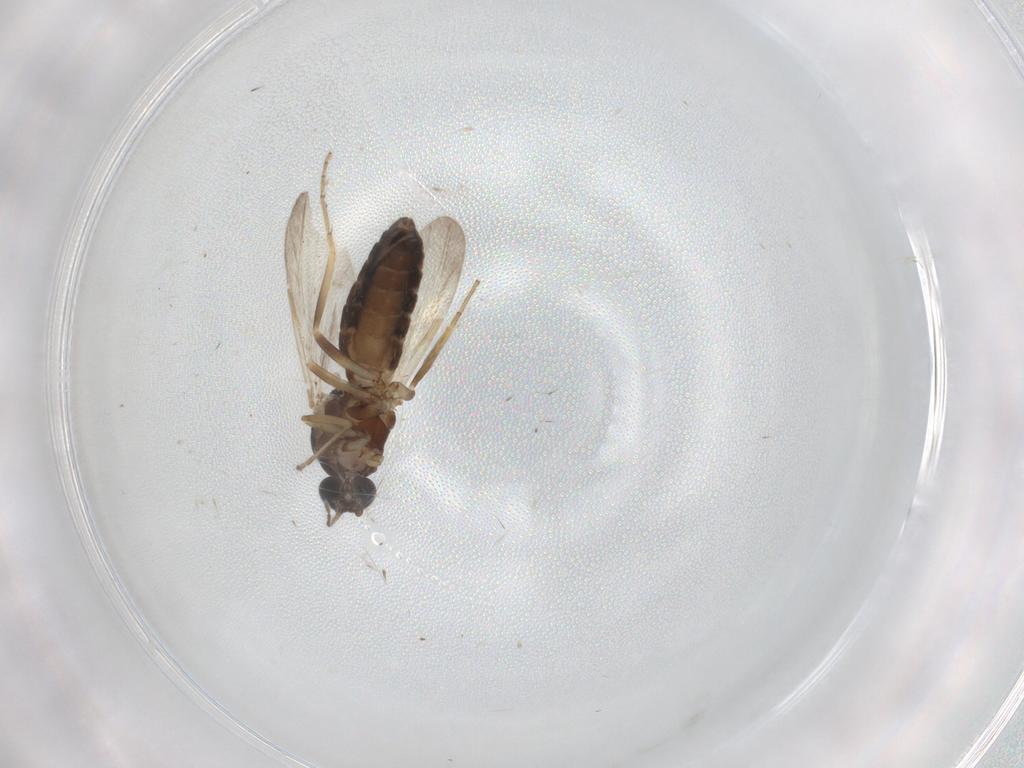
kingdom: Animalia
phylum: Arthropoda
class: Insecta
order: Diptera
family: Ceratopogonidae
